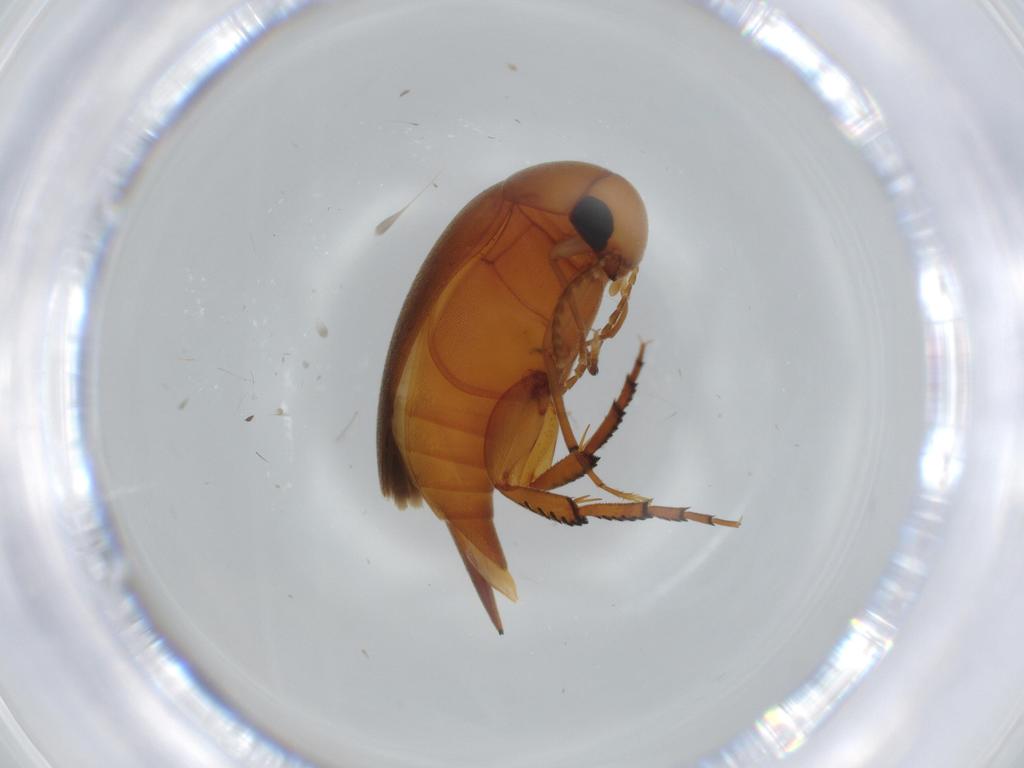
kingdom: Animalia
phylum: Arthropoda
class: Insecta
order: Coleoptera
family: Mordellidae
